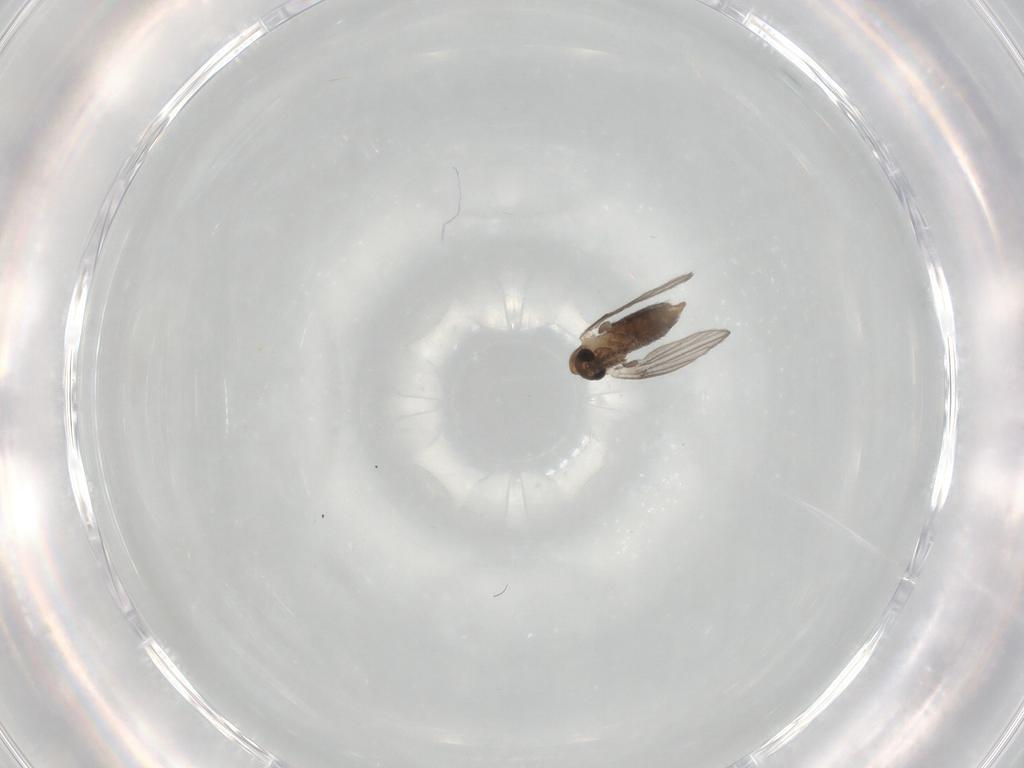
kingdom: Animalia
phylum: Arthropoda
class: Insecta
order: Diptera
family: Psychodidae
